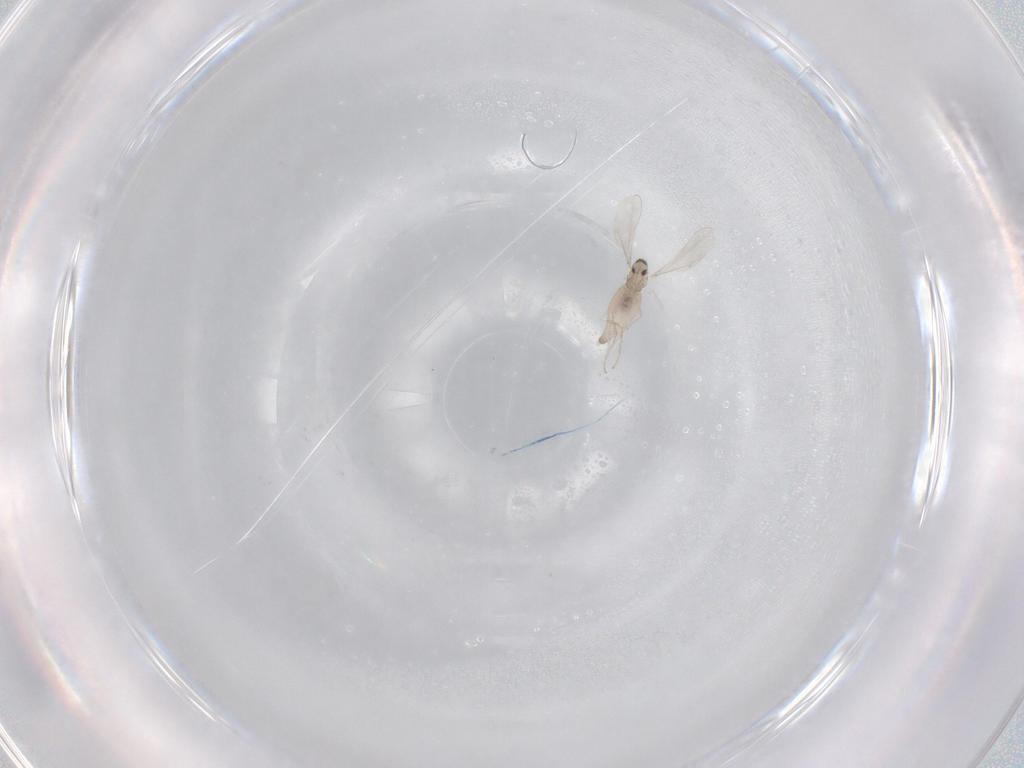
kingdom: Animalia
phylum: Arthropoda
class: Insecta
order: Diptera
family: Cecidomyiidae
